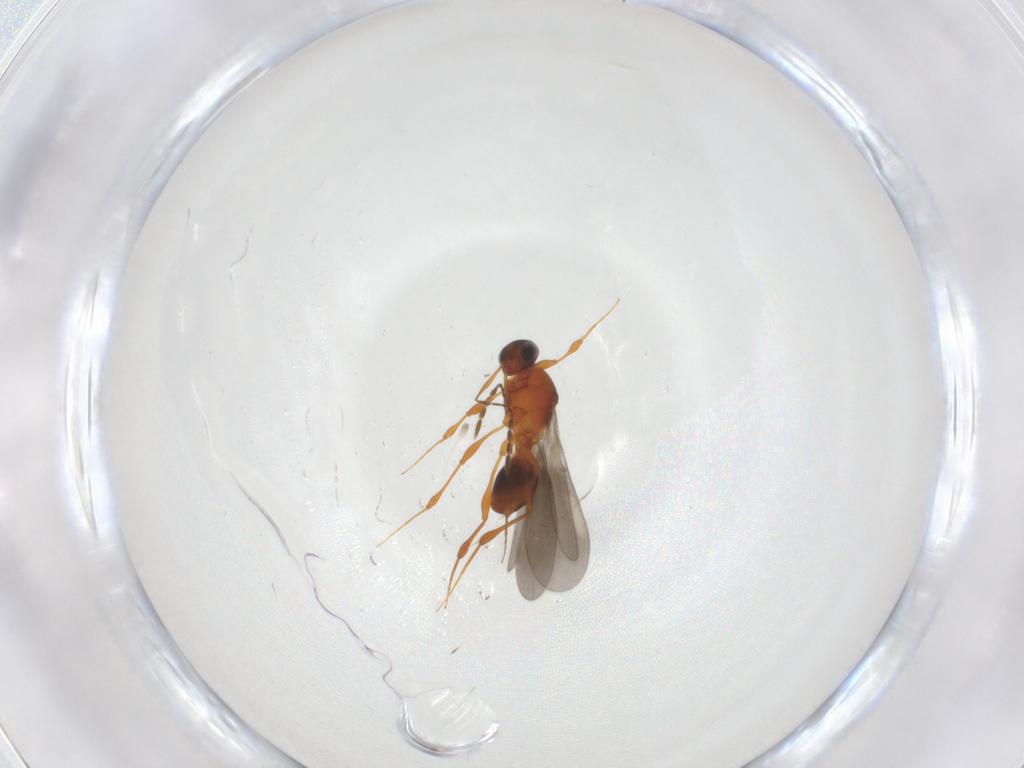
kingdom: Animalia
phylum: Arthropoda
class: Insecta
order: Hymenoptera
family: Platygastridae
